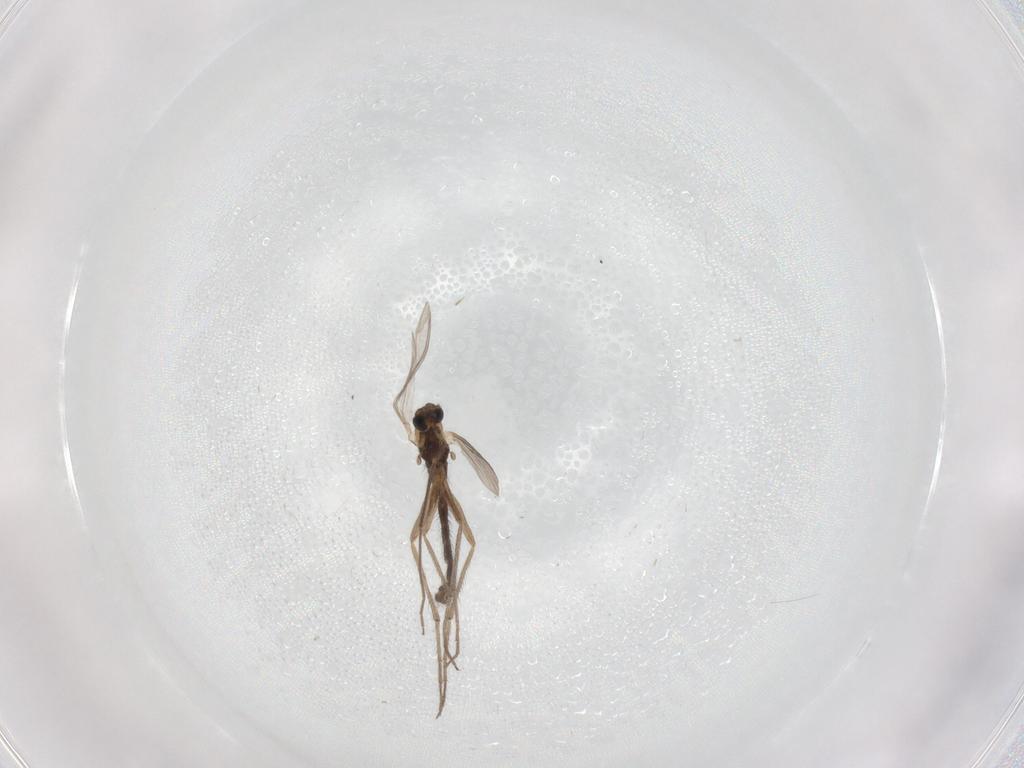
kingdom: Animalia
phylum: Arthropoda
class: Insecta
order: Diptera
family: Chironomidae
